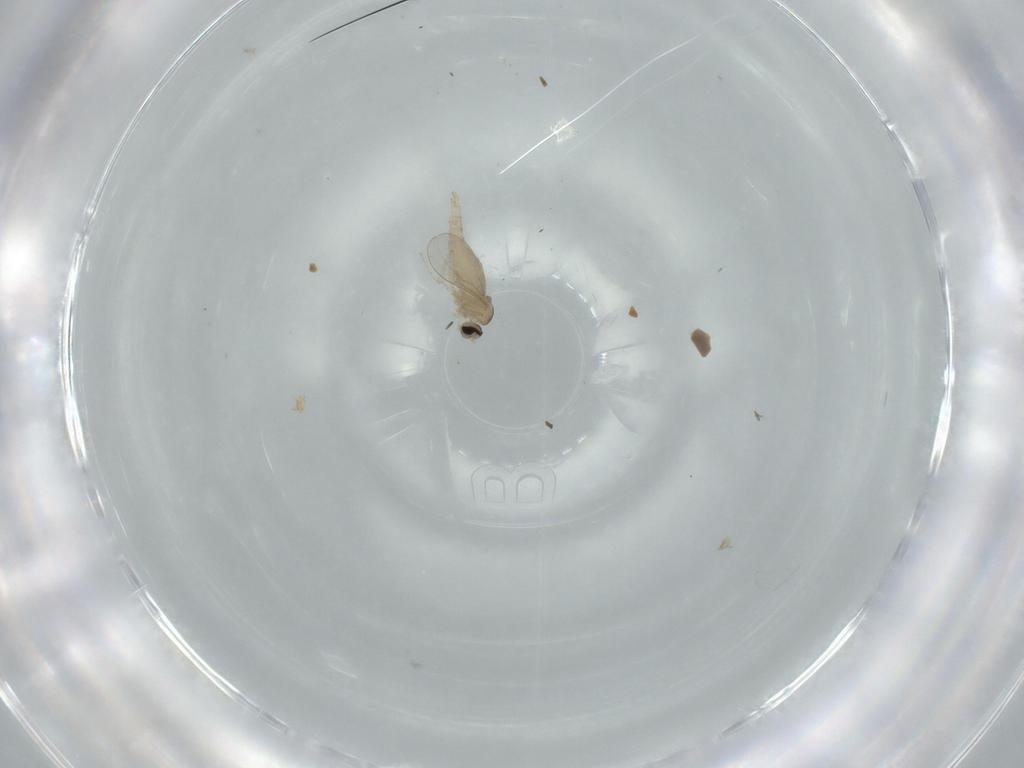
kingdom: Animalia
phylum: Arthropoda
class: Insecta
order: Diptera
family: Cecidomyiidae
